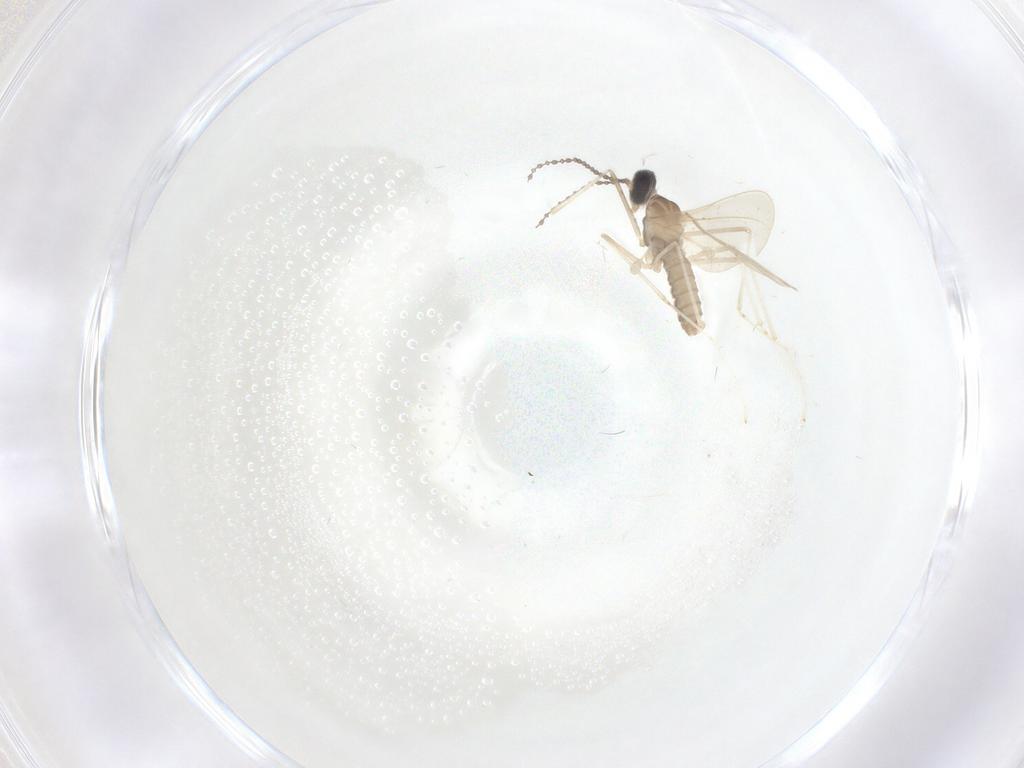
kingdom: Animalia
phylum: Arthropoda
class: Insecta
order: Diptera
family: Cecidomyiidae
